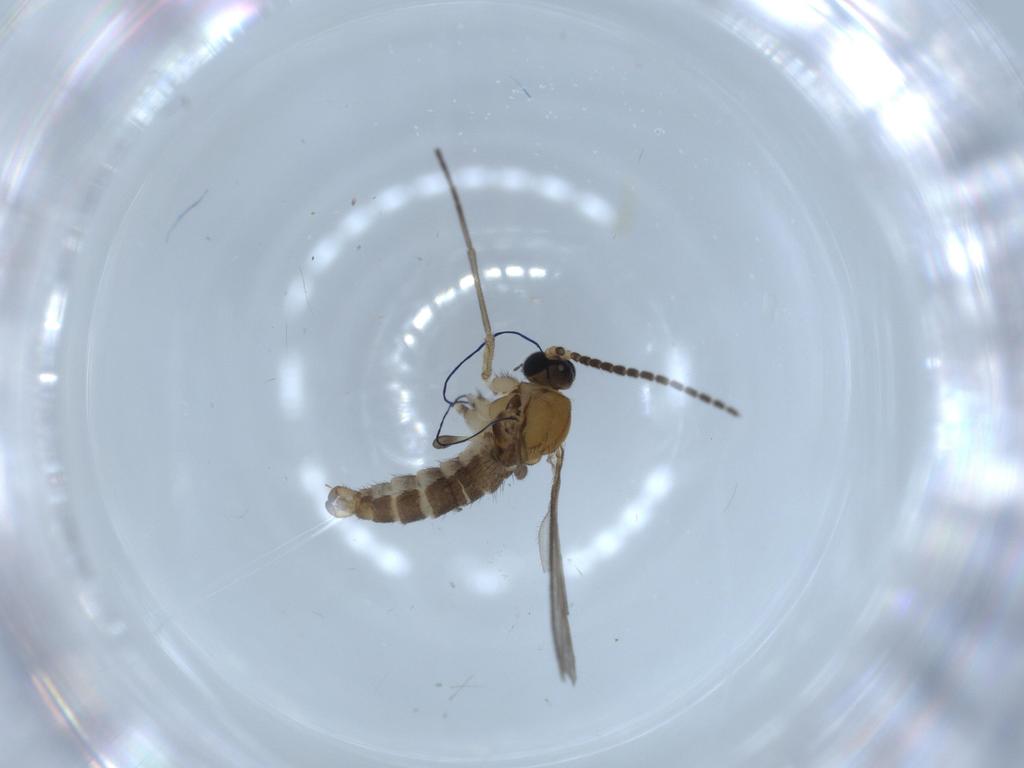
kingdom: Animalia
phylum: Arthropoda
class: Insecta
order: Diptera
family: Sciaridae
